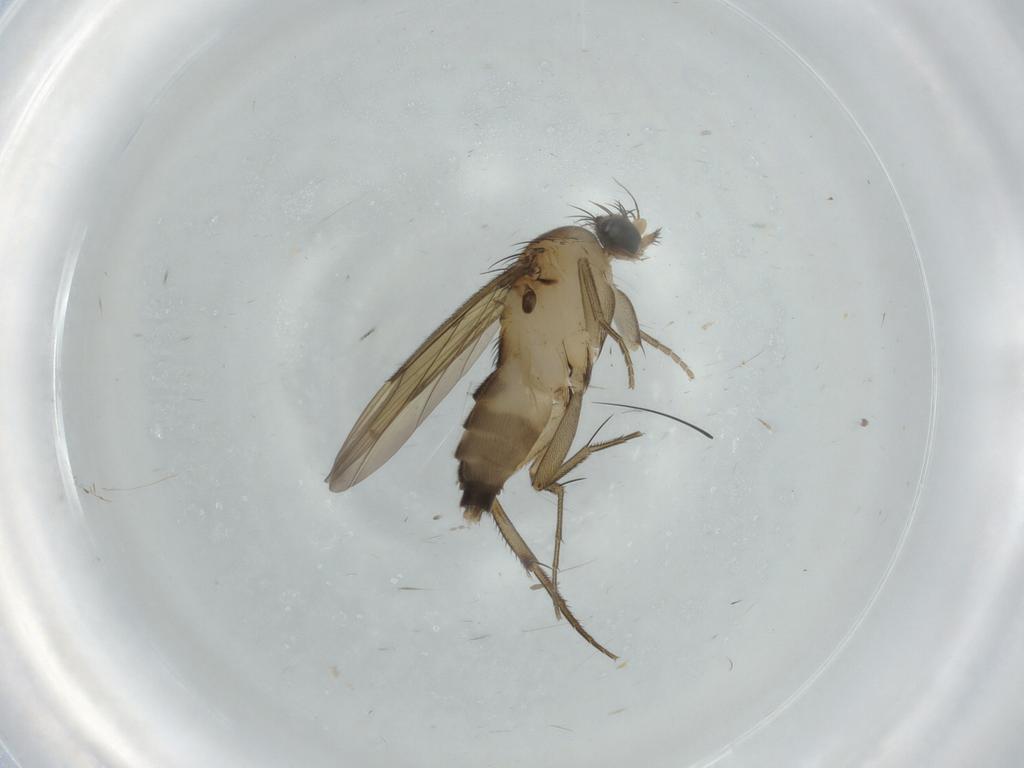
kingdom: Animalia
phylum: Arthropoda
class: Insecta
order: Diptera
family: Phoridae
